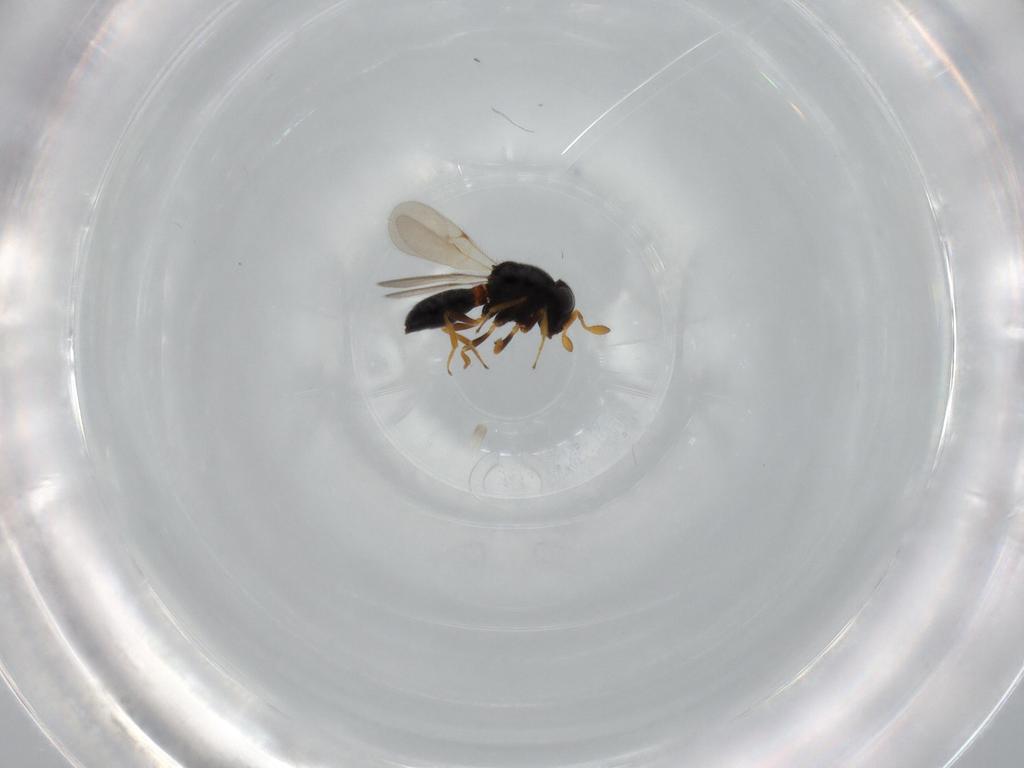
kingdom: Animalia
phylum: Arthropoda
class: Insecta
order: Hymenoptera
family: Scelionidae
